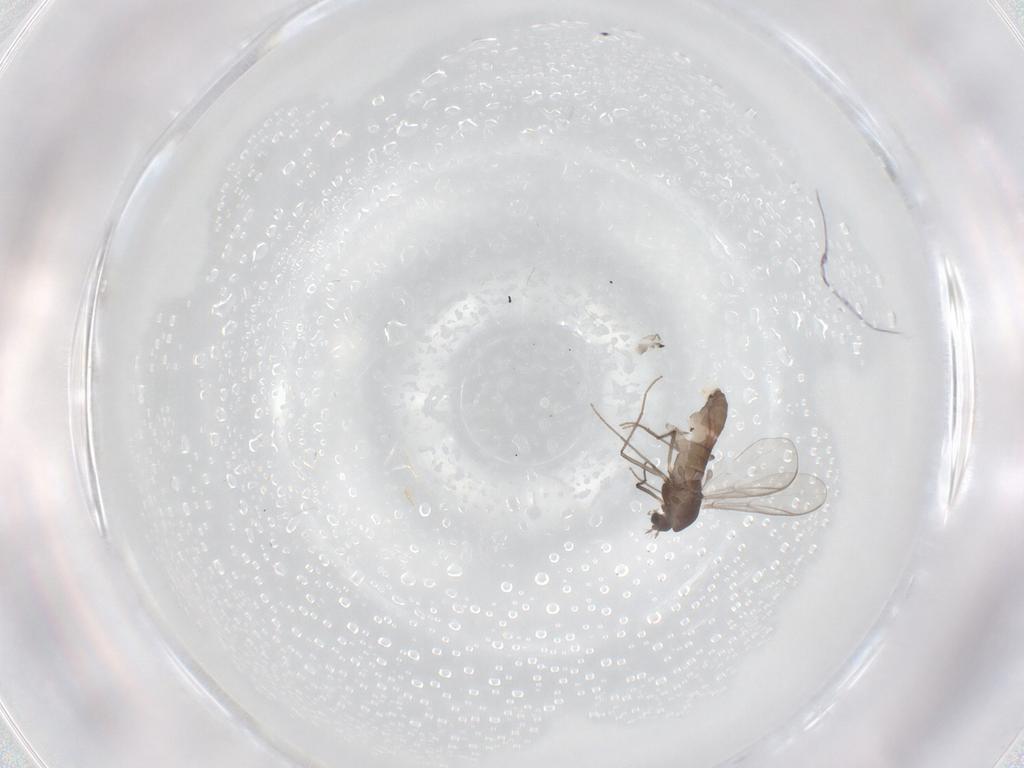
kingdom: Animalia
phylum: Arthropoda
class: Insecta
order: Diptera
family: Chironomidae
